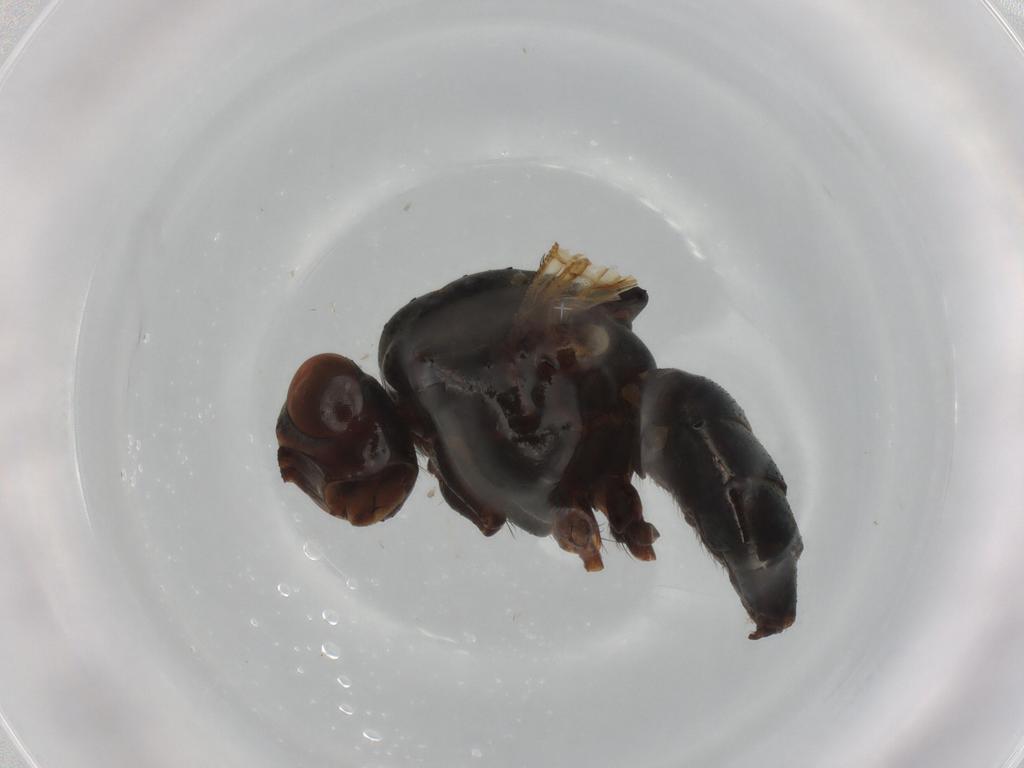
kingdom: Animalia
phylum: Arthropoda
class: Insecta
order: Diptera
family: Anthomyiidae
